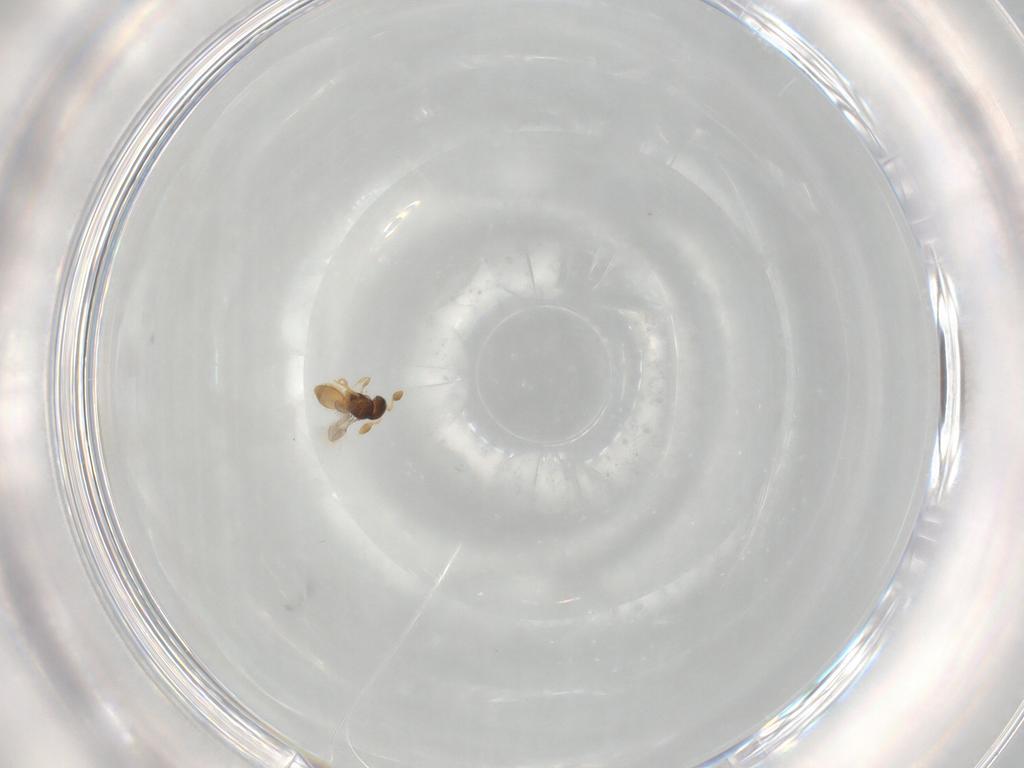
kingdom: Animalia
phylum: Arthropoda
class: Insecta
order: Hymenoptera
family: Scelionidae
